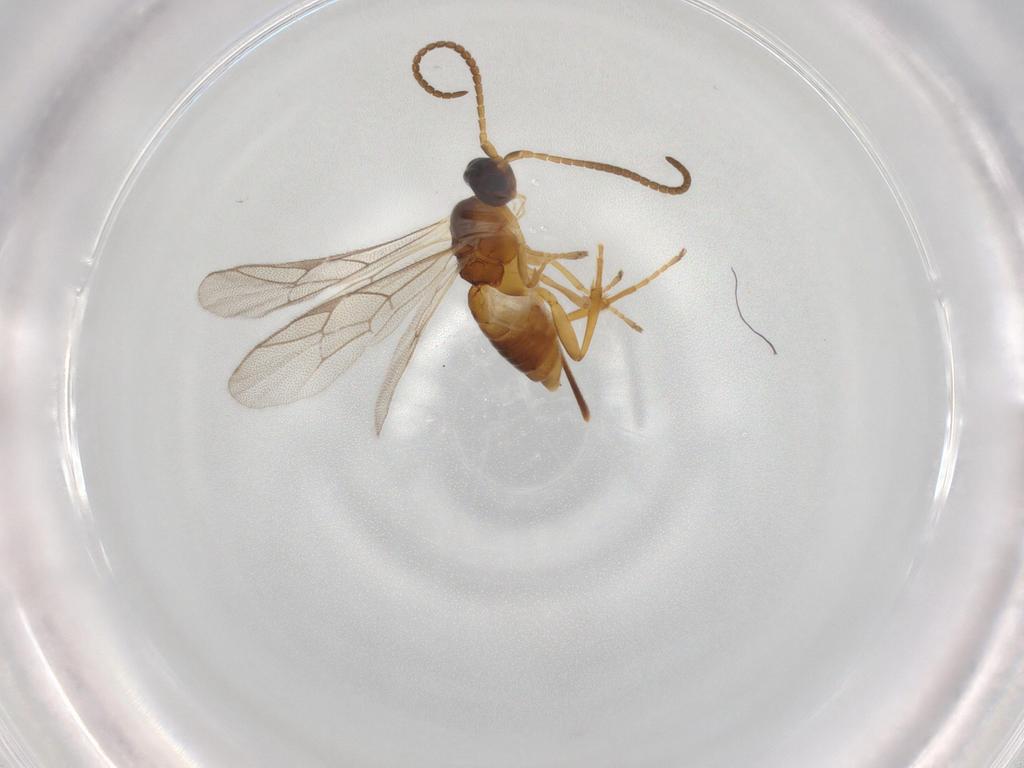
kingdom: Animalia
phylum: Arthropoda
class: Insecta
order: Hymenoptera
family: Ichneumonidae
